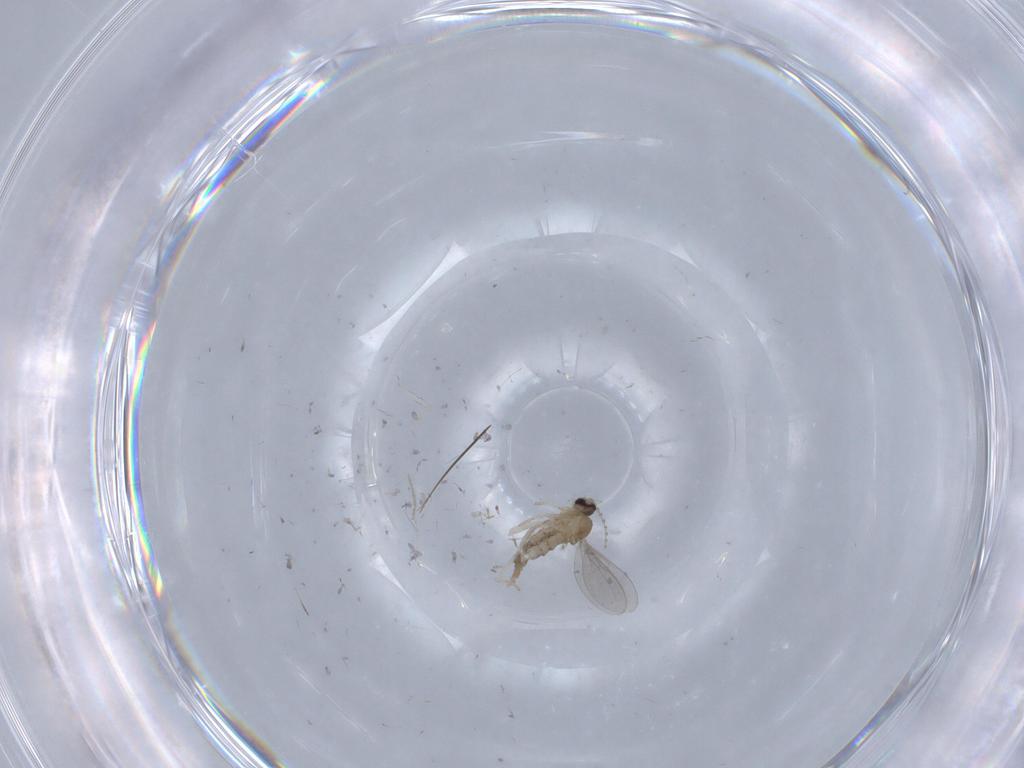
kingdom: Animalia
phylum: Arthropoda
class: Insecta
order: Diptera
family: Cecidomyiidae
